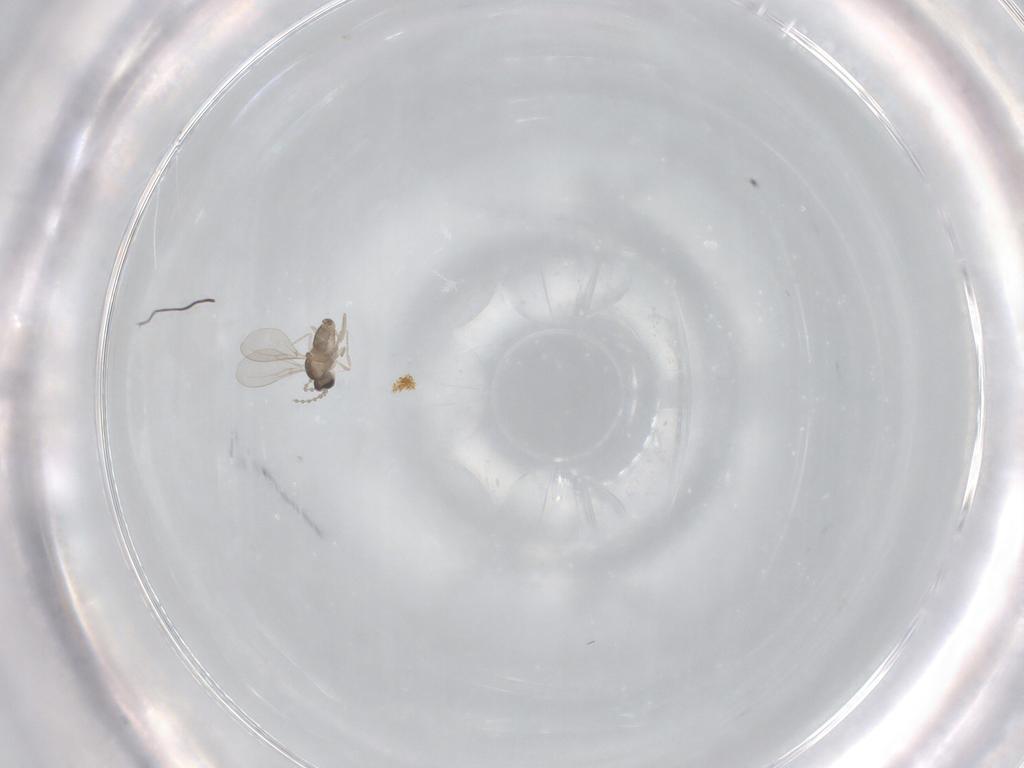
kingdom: Animalia
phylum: Arthropoda
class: Insecta
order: Diptera
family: Cecidomyiidae
